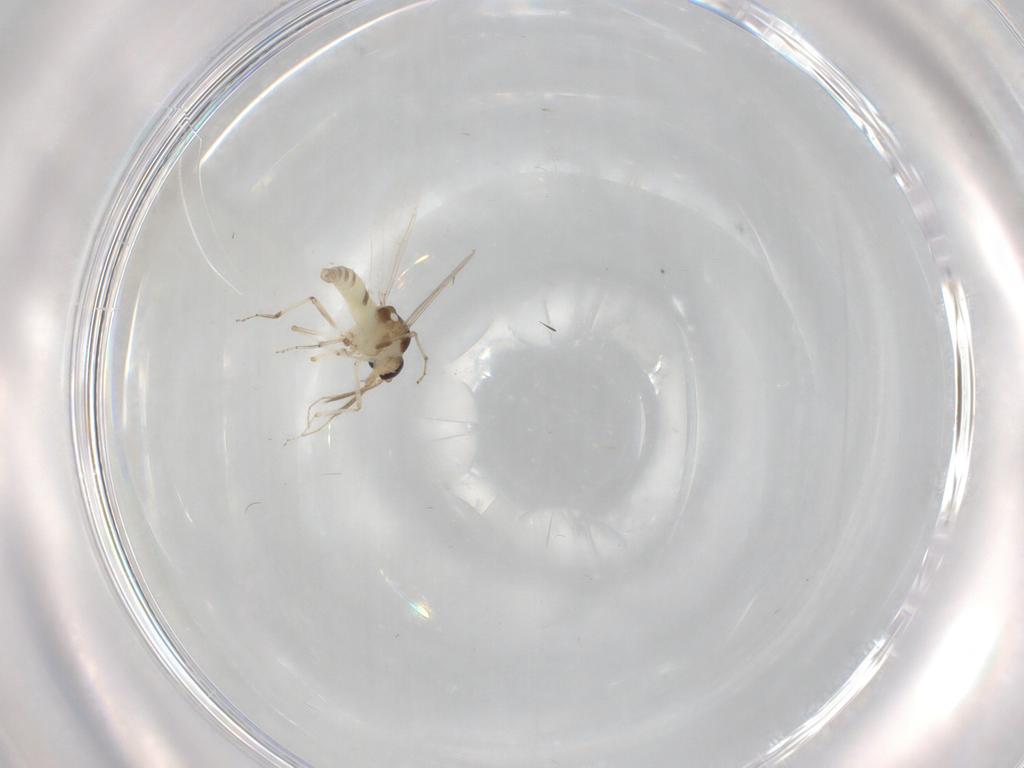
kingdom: Animalia
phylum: Arthropoda
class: Insecta
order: Diptera
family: Ceratopogonidae
